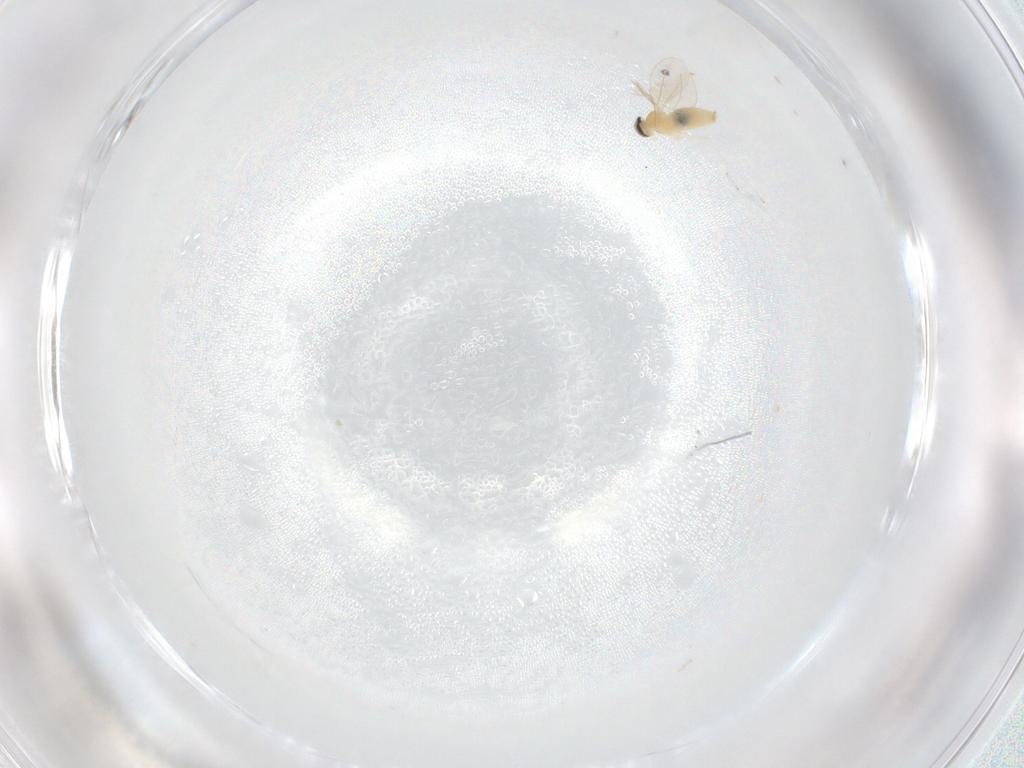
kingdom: Animalia
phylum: Arthropoda
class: Insecta
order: Diptera
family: Cecidomyiidae
